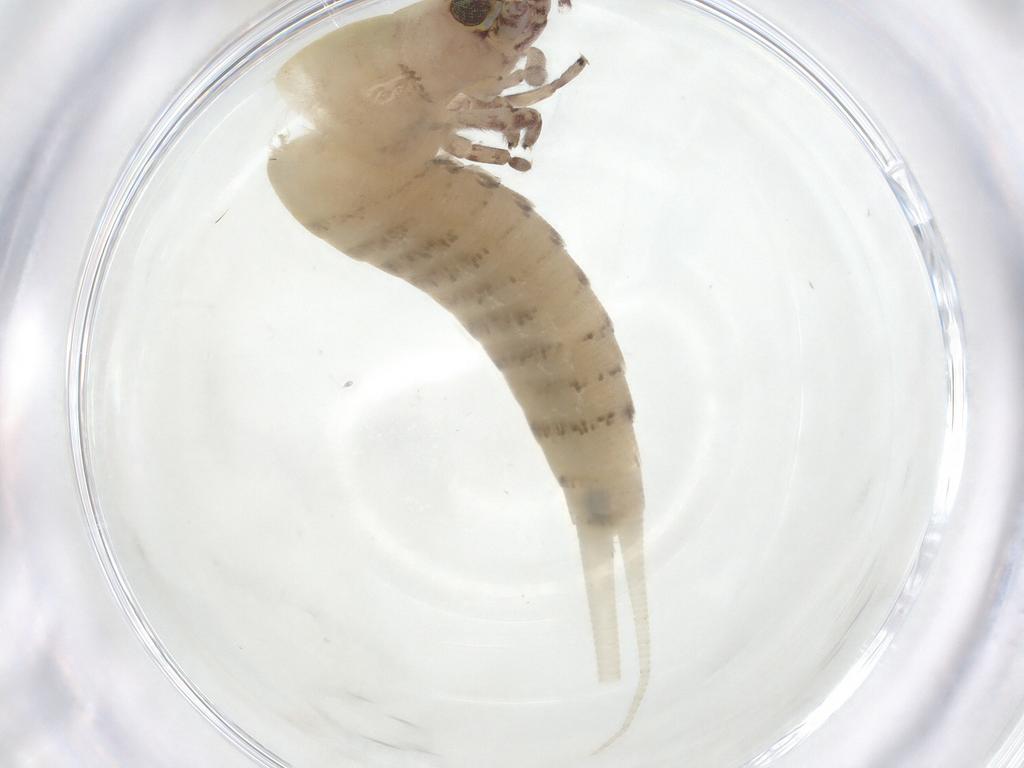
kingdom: Animalia
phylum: Arthropoda
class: Insecta
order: Archaeognatha
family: Machilidae
